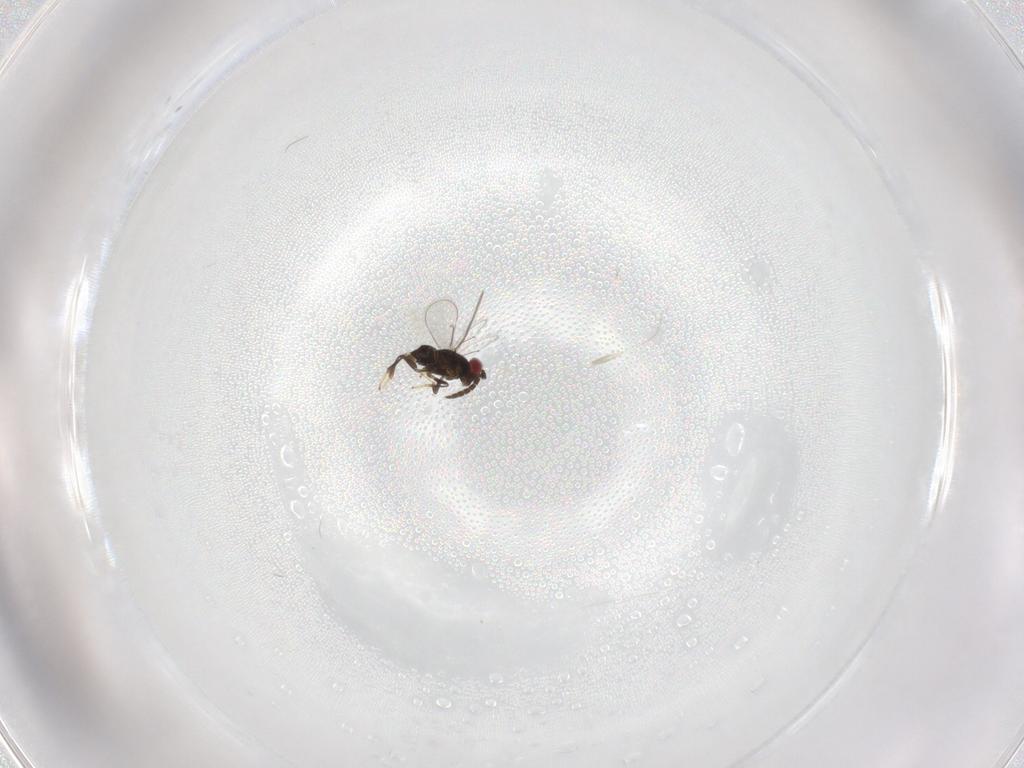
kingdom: Animalia
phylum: Arthropoda
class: Insecta
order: Hymenoptera
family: Aphelinidae
